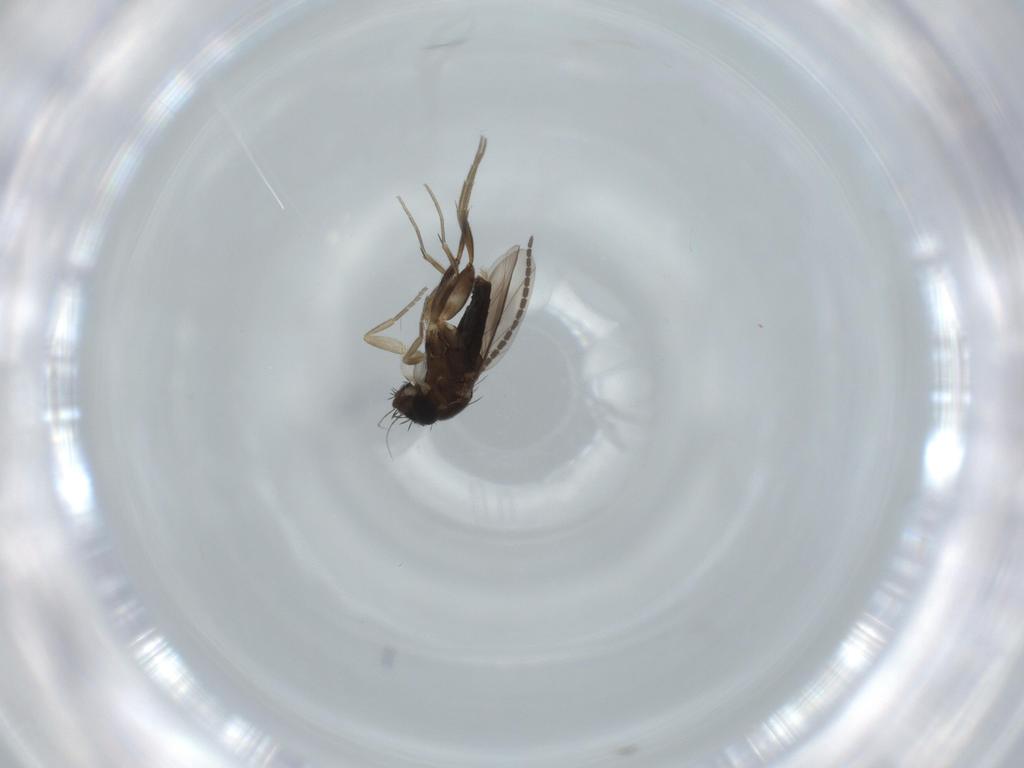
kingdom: Animalia
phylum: Arthropoda
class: Insecta
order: Diptera
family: Phoridae
